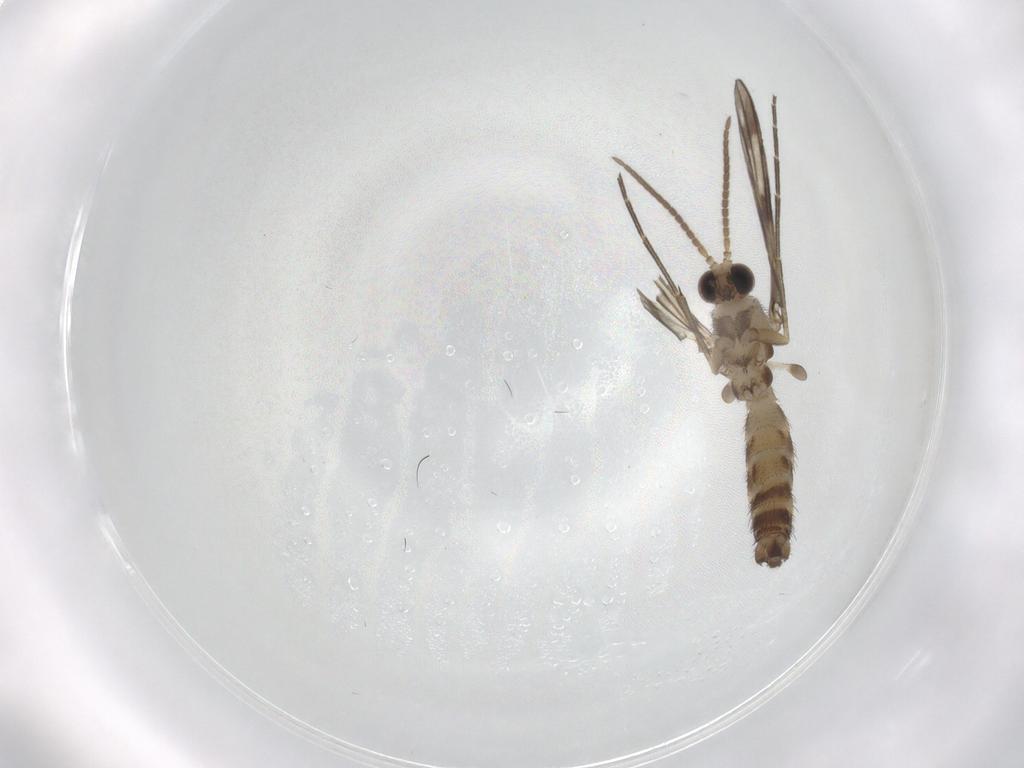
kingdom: Animalia
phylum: Arthropoda
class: Insecta
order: Diptera
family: Keroplatidae
